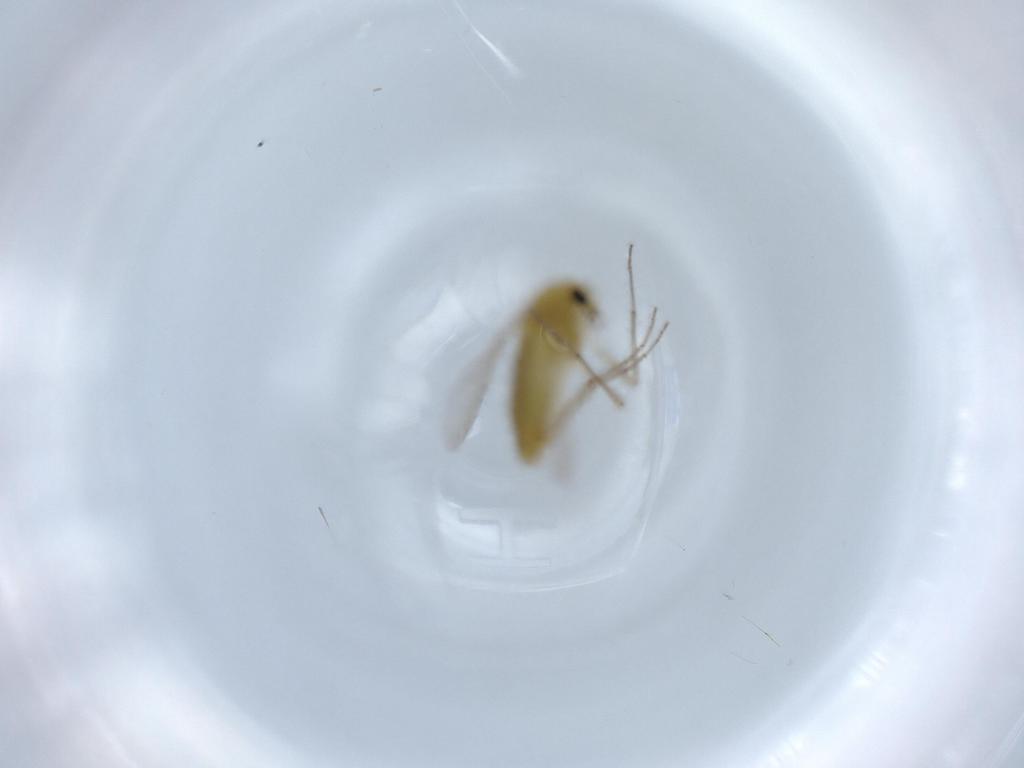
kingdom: Animalia
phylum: Arthropoda
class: Insecta
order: Diptera
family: Chironomidae
